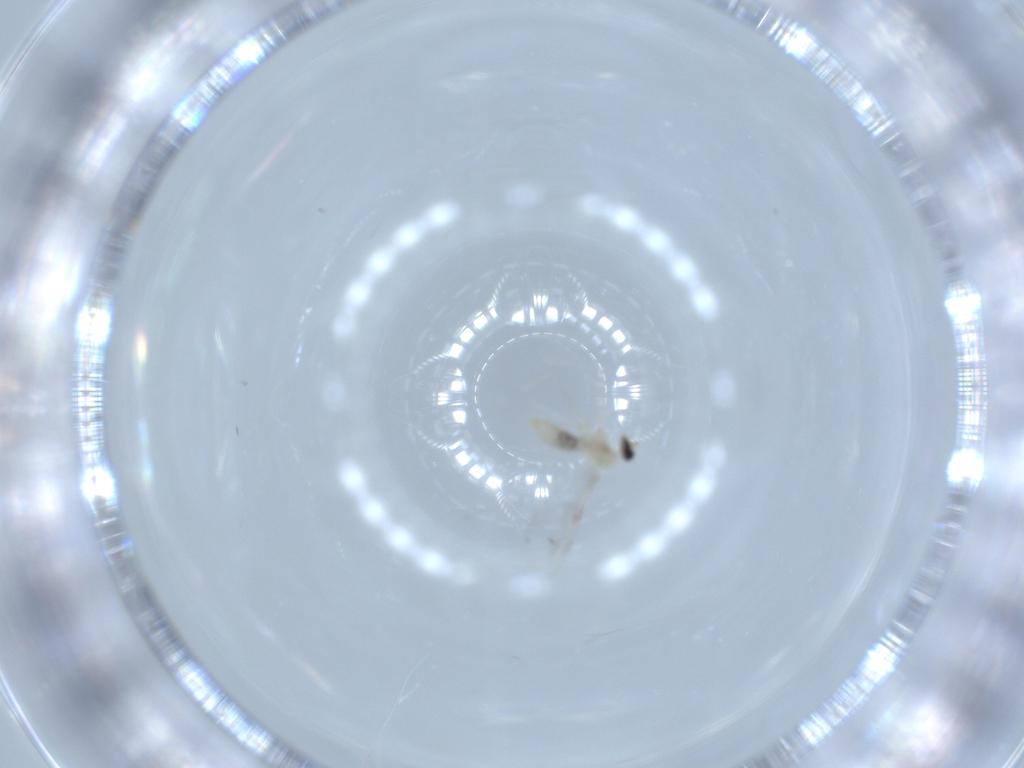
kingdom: Animalia
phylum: Arthropoda
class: Insecta
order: Diptera
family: Cecidomyiidae
